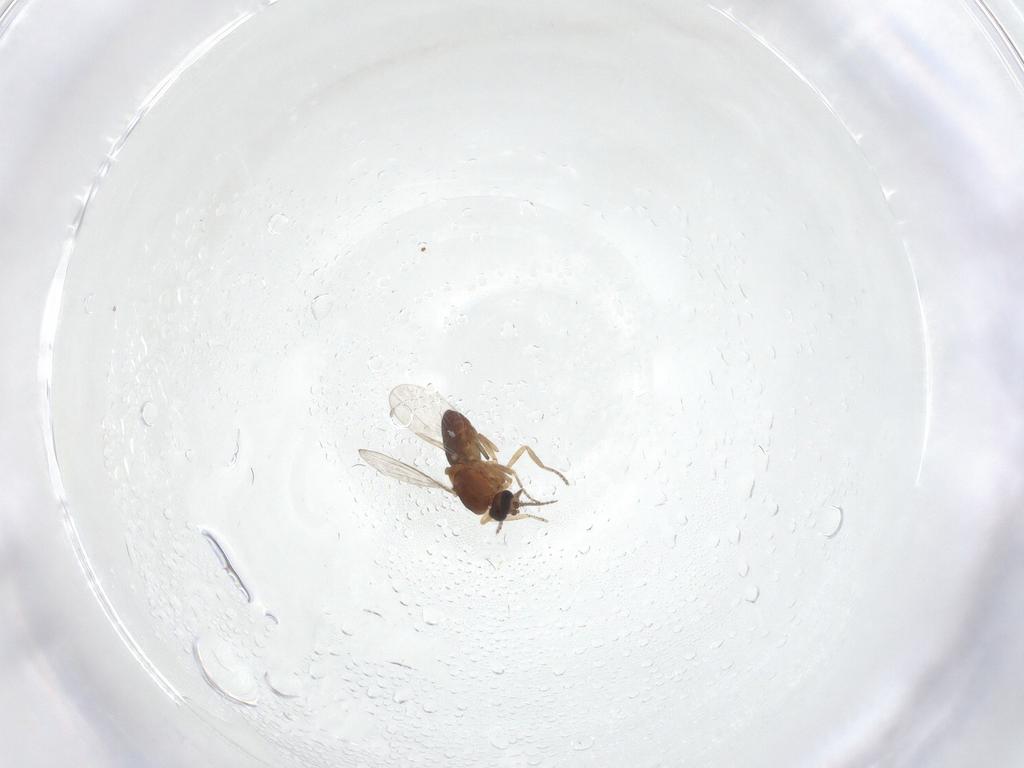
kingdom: Animalia
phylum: Arthropoda
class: Insecta
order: Diptera
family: Ceratopogonidae
